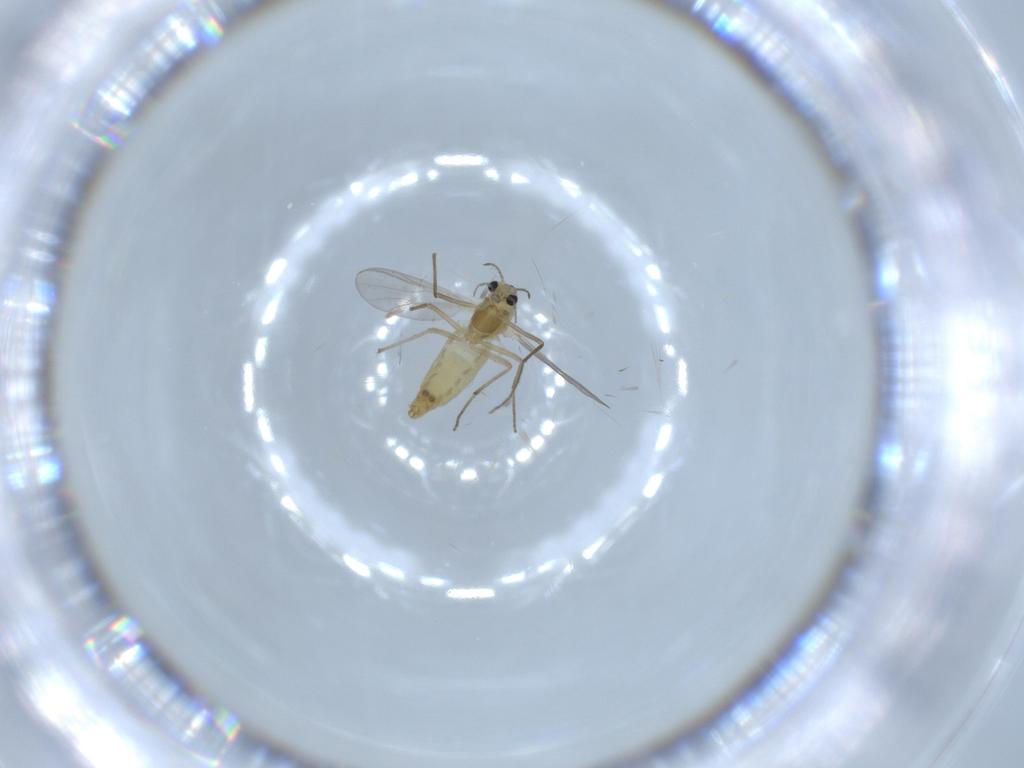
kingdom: Animalia
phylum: Arthropoda
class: Insecta
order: Diptera
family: Chironomidae
